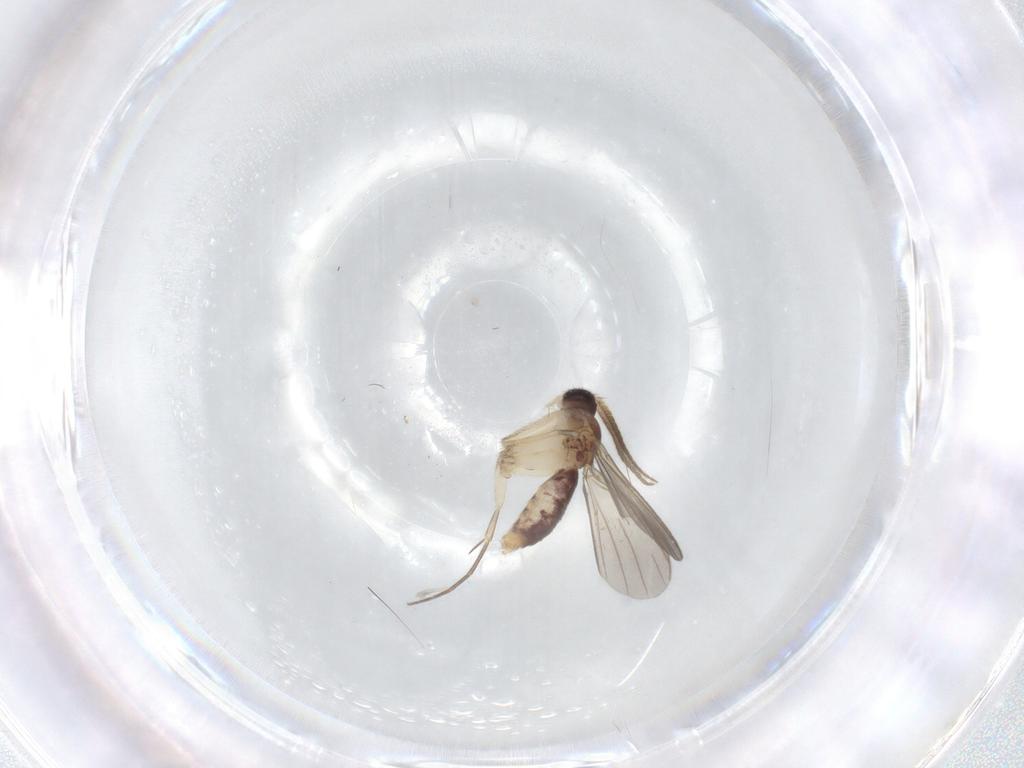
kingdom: Animalia
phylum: Arthropoda
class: Insecta
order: Diptera
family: Mycetophilidae
